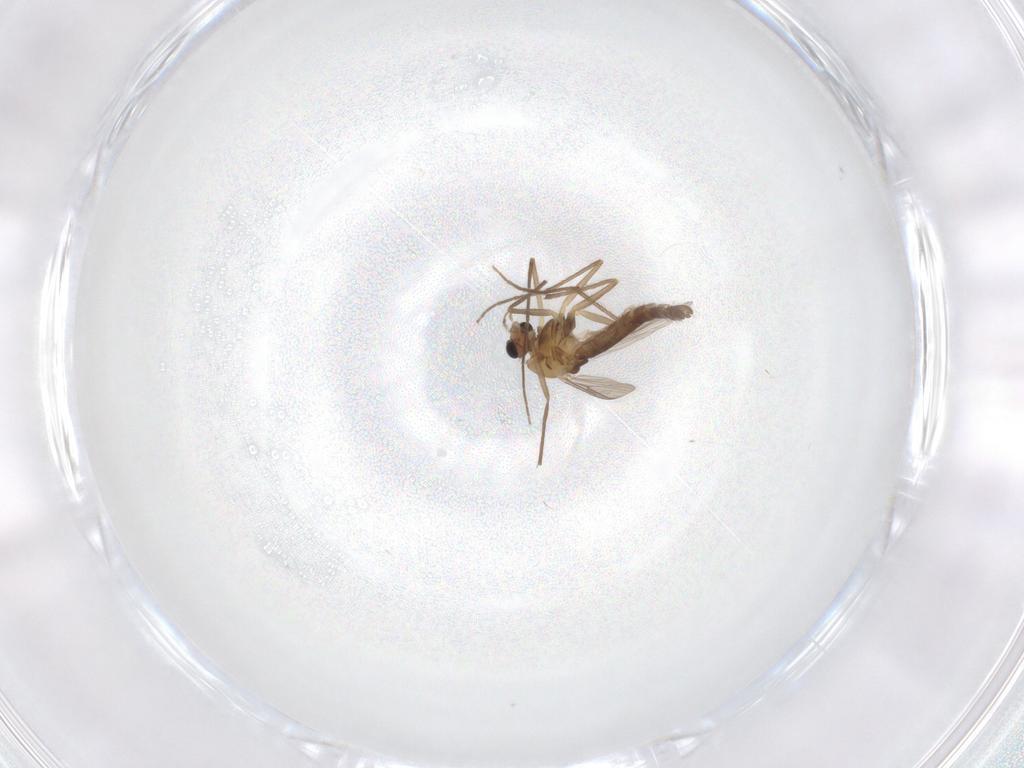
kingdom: Animalia
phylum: Arthropoda
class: Insecta
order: Diptera
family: Chironomidae
